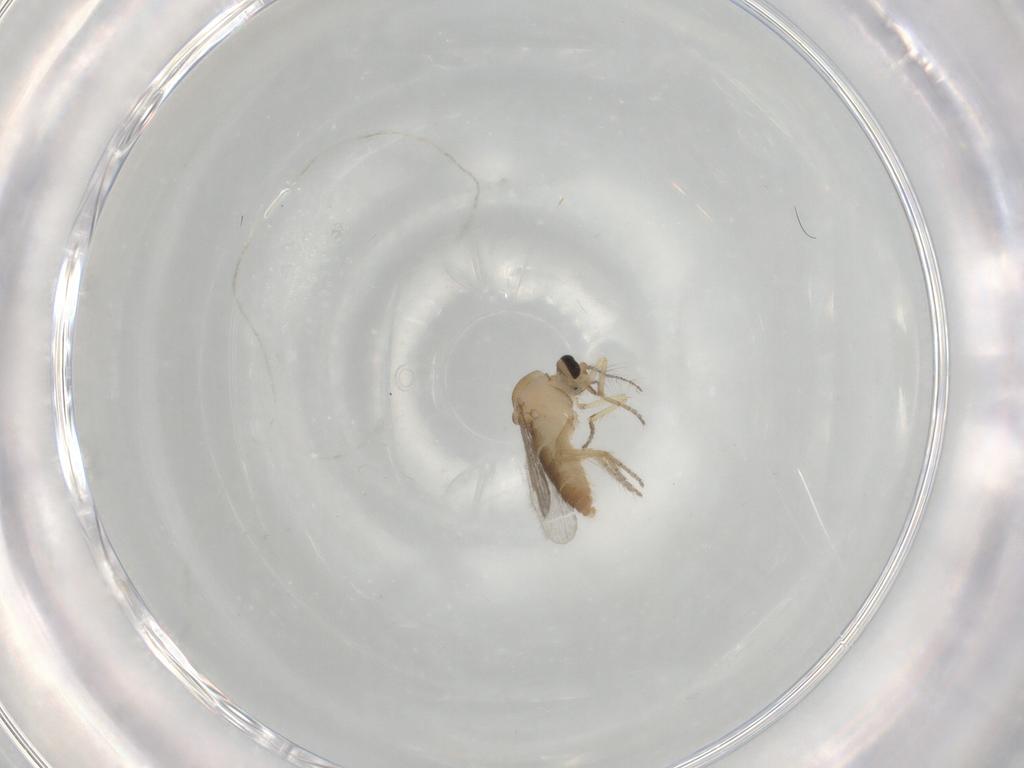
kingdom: Animalia
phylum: Arthropoda
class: Insecta
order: Diptera
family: Ceratopogonidae
